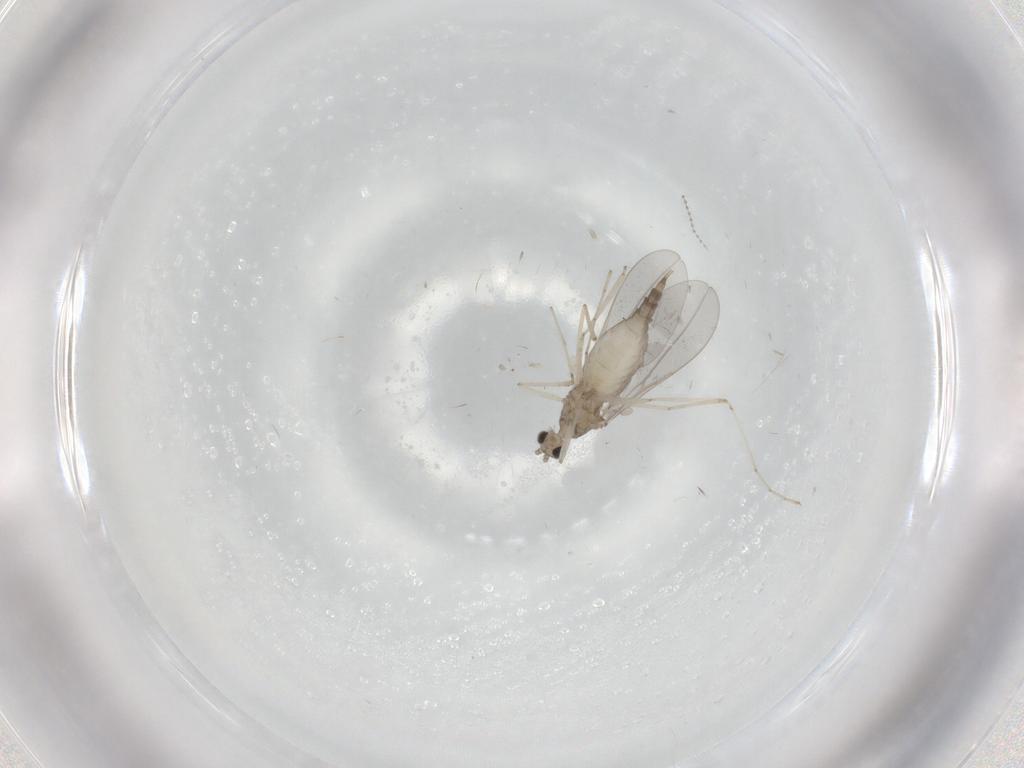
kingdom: Animalia
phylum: Arthropoda
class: Insecta
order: Diptera
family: Cecidomyiidae
